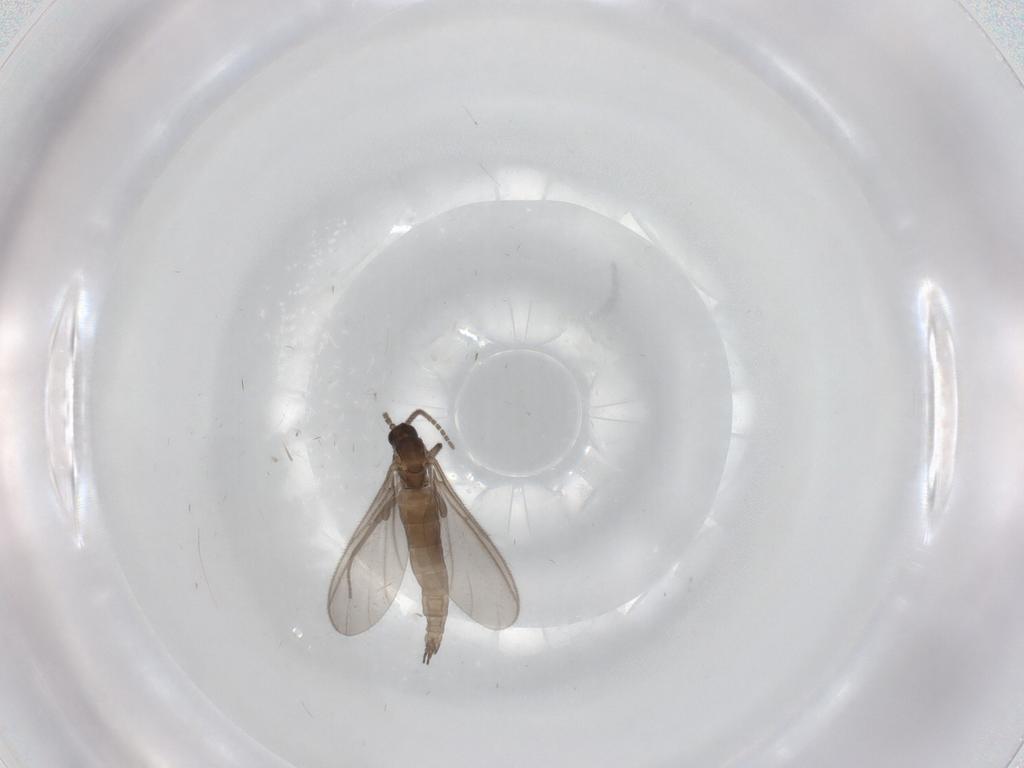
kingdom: Animalia
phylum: Arthropoda
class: Insecta
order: Diptera
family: Sciaridae
